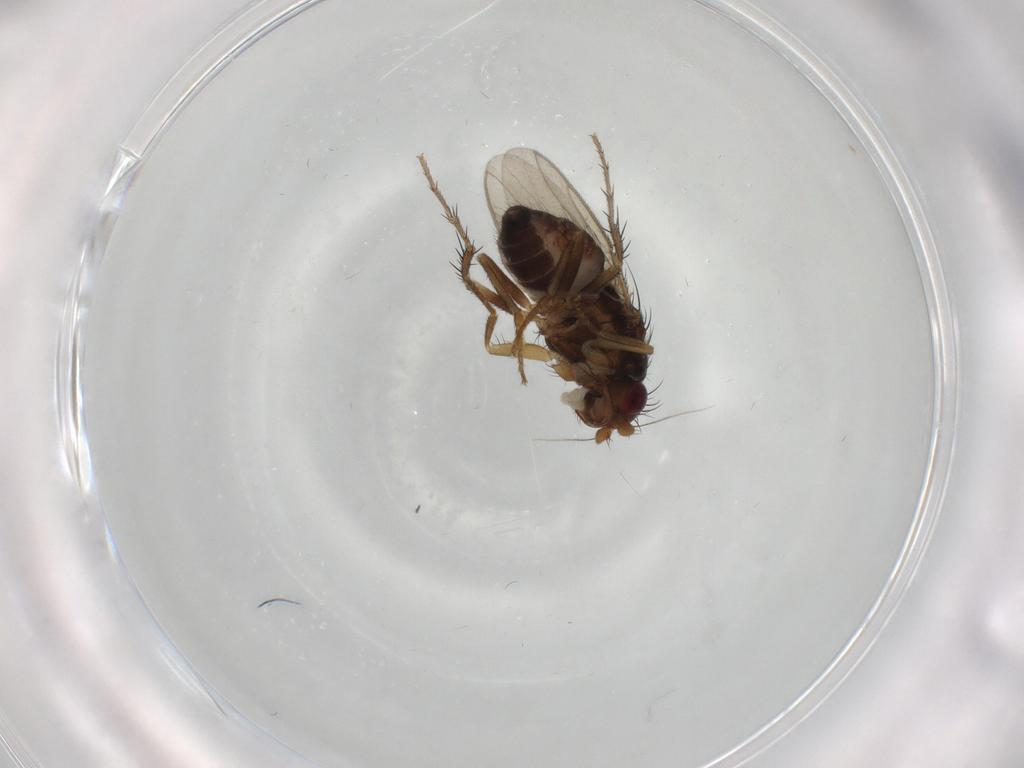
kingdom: Animalia
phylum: Arthropoda
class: Insecta
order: Diptera
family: Sphaeroceridae
